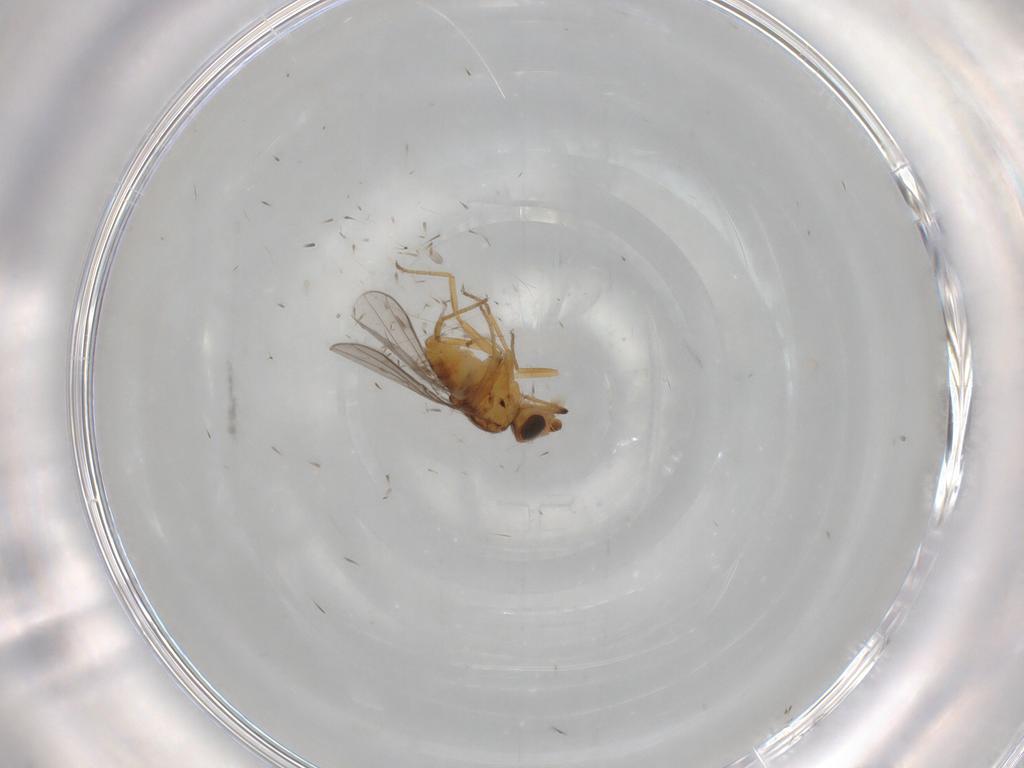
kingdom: Animalia
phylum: Arthropoda
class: Insecta
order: Diptera
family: Chloropidae
